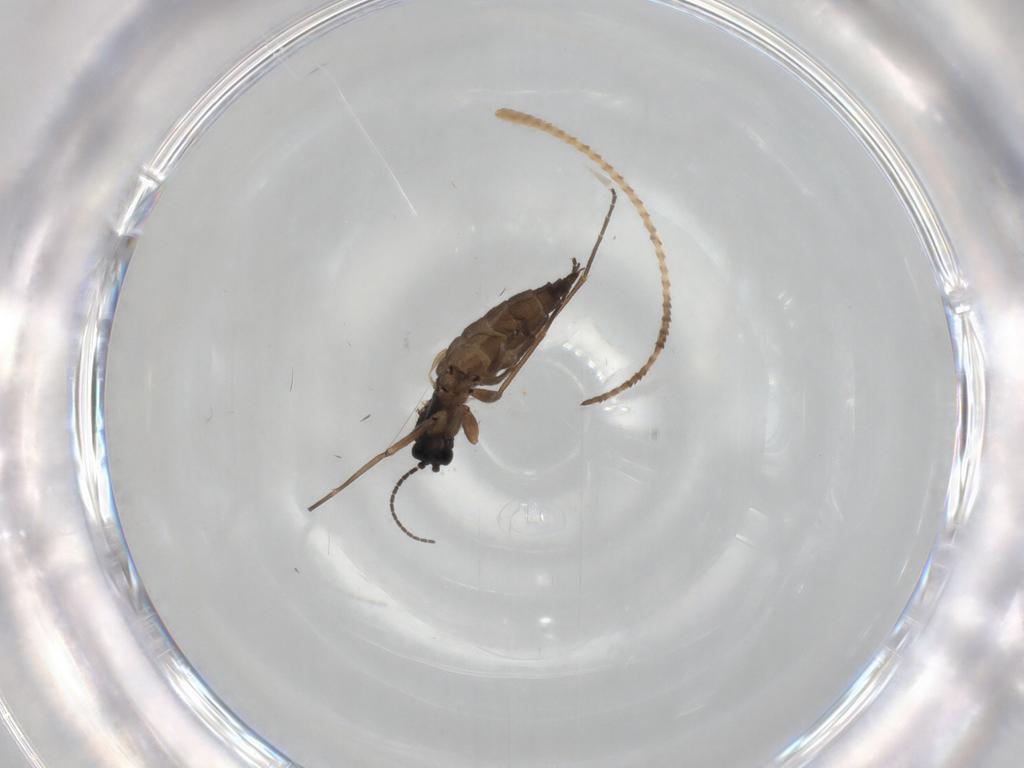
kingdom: Animalia
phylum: Arthropoda
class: Insecta
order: Diptera
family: Sciaridae
